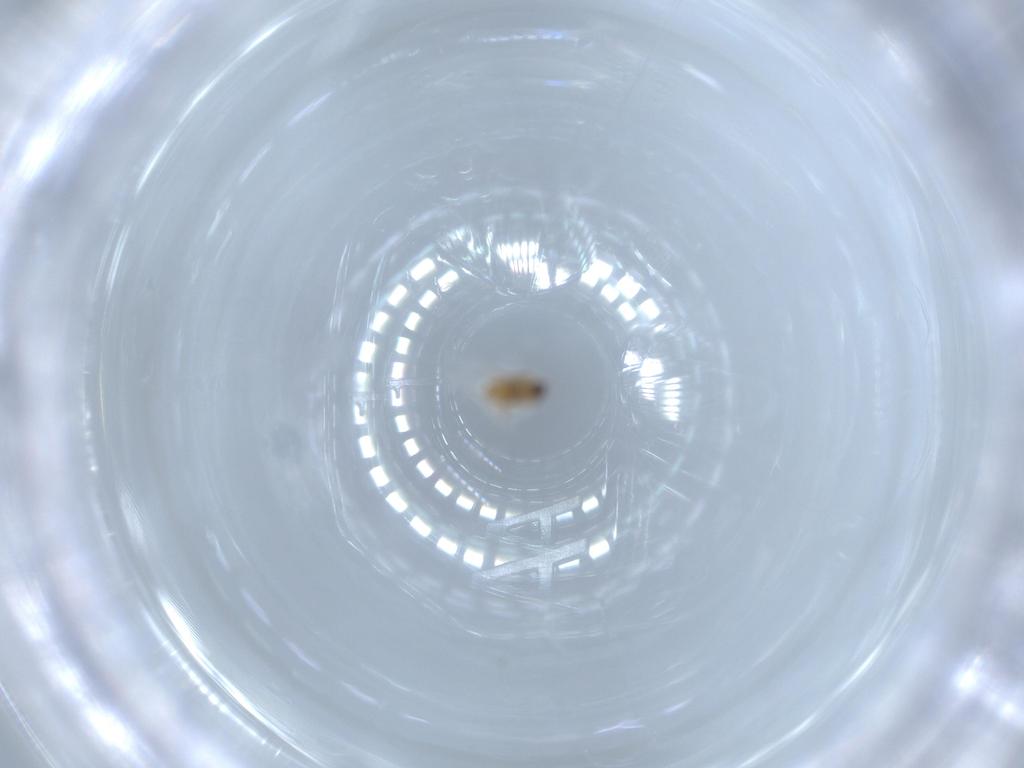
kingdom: Animalia
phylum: Arthropoda
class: Insecta
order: Diptera
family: Phoridae
